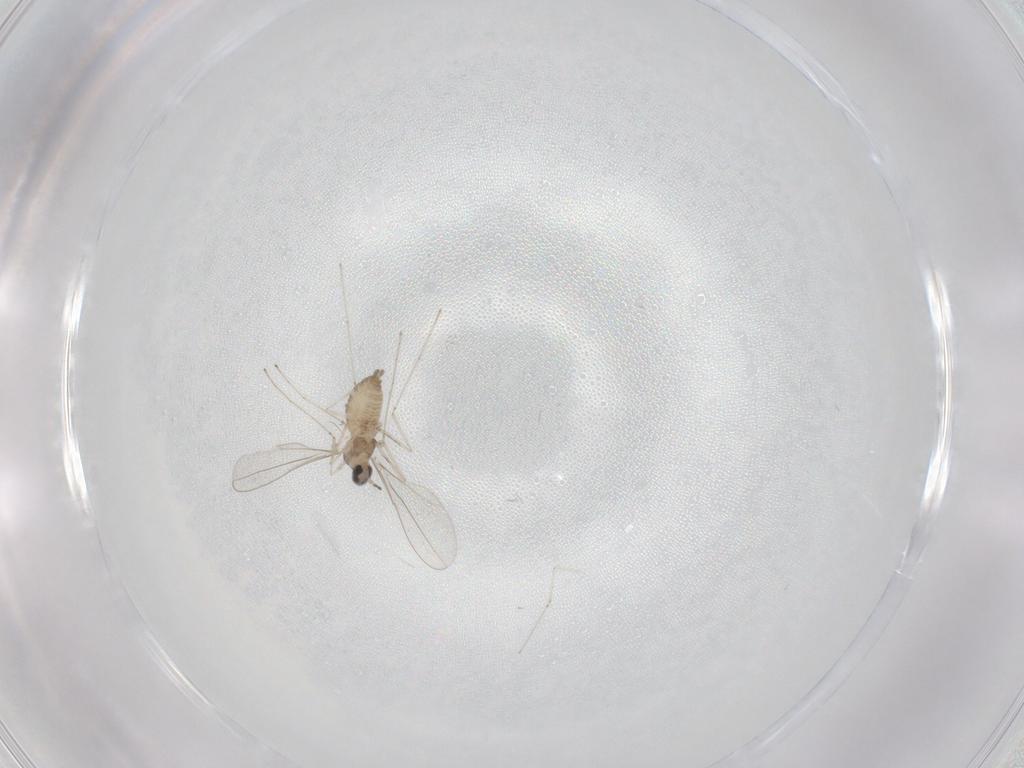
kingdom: Animalia
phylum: Arthropoda
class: Insecta
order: Diptera
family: Cecidomyiidae
